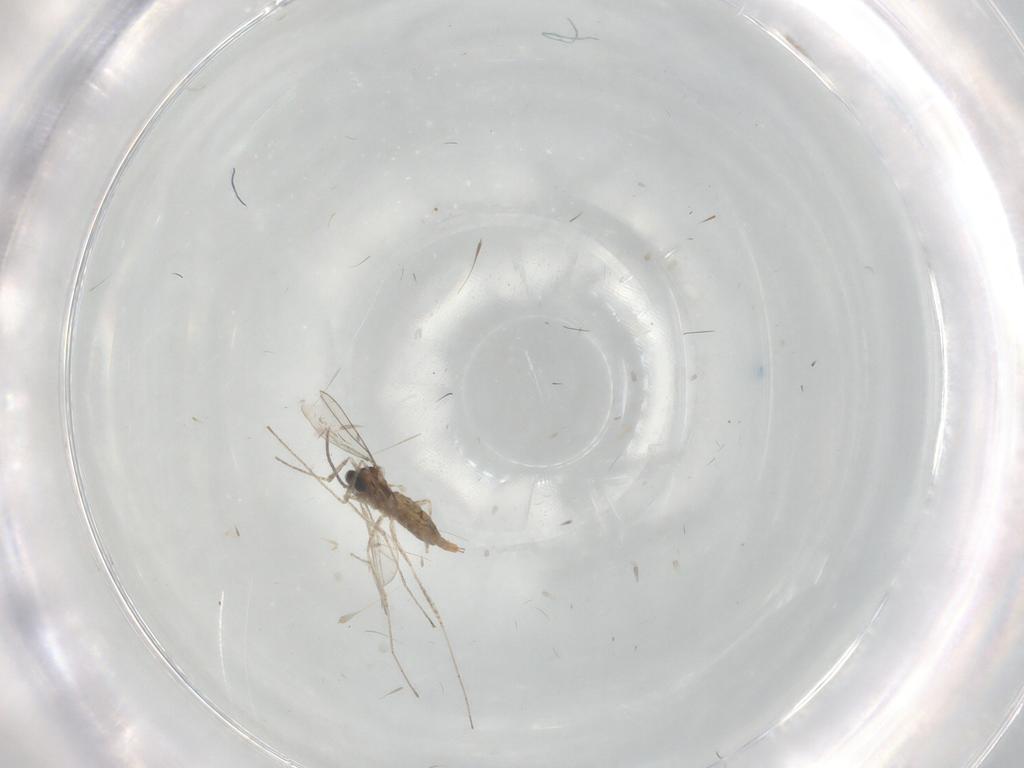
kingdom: Animalia
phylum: Arthropoda
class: Insecta
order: Diptera
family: Chironomidae
